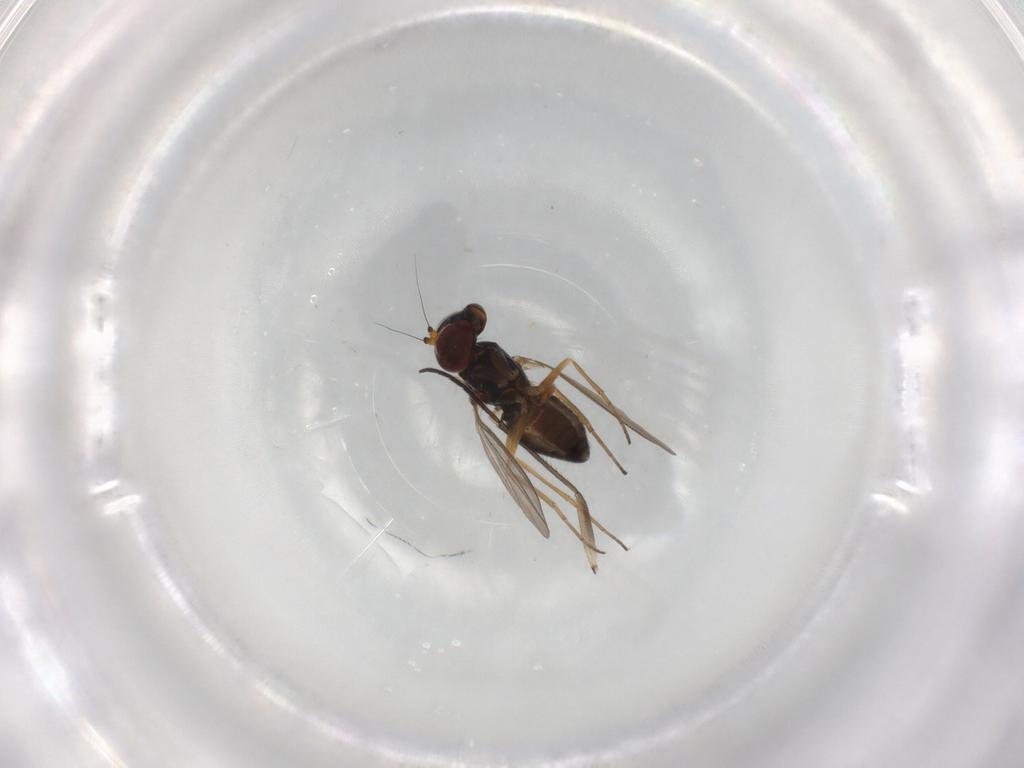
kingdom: Animalia
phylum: Arthropoda
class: Insecta
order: Diptera
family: Sciaridae
